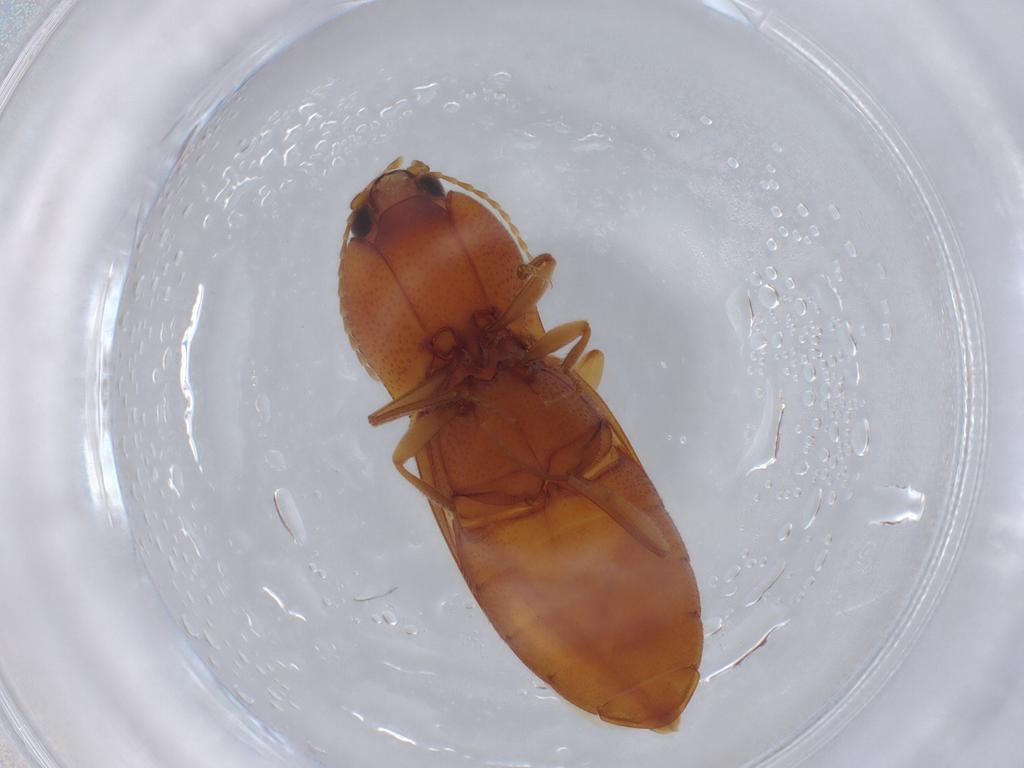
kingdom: Animalia
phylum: Arthropoda
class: Insecta
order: Coleoptera
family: Elateridae
